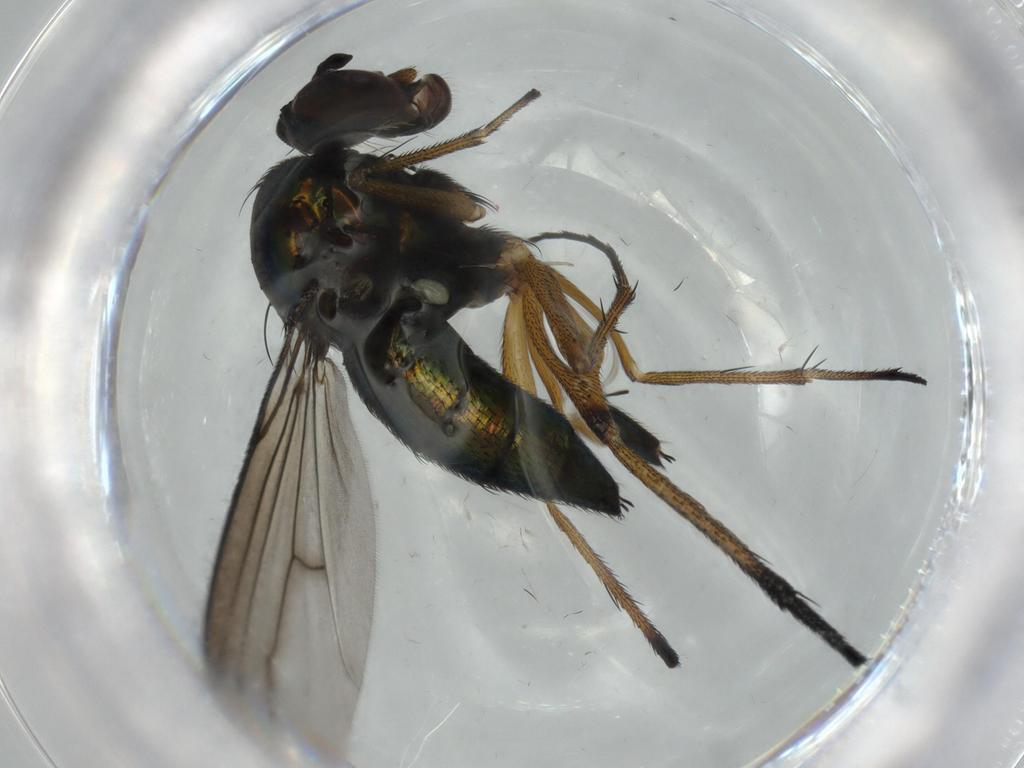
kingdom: Animalia
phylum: Arthropoda
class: Insecta
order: Diptera
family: Dolichopodidae
